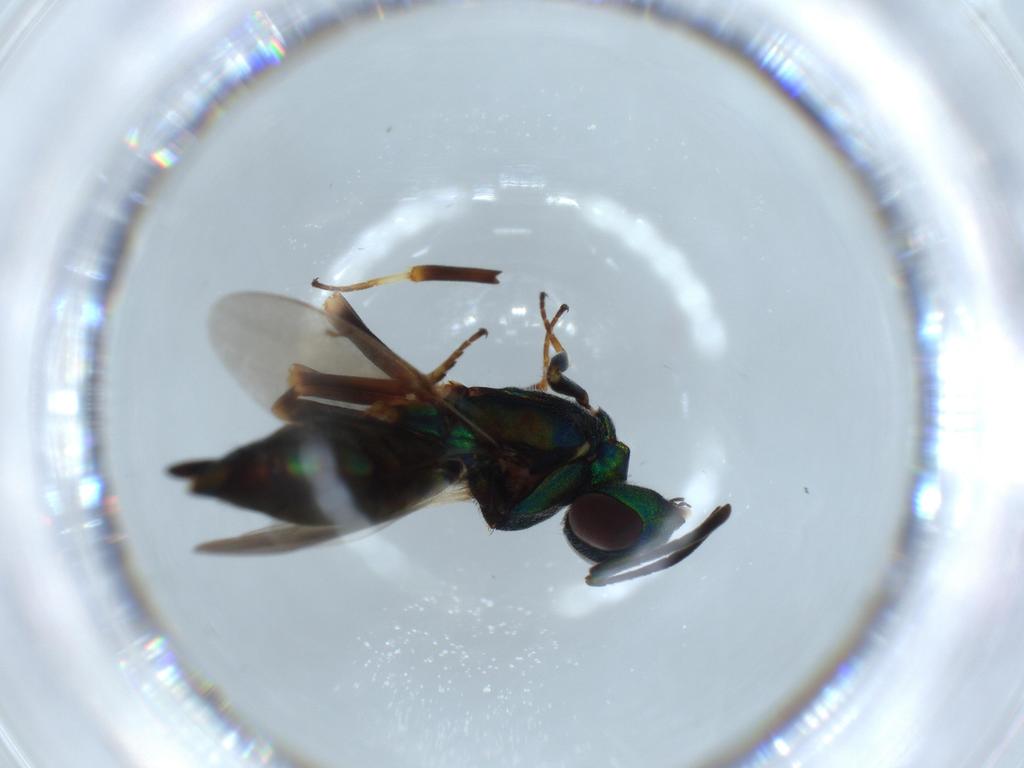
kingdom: Animalia
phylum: Arthropoda
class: Insecta
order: Hymenoptera
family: Eupelmidae
